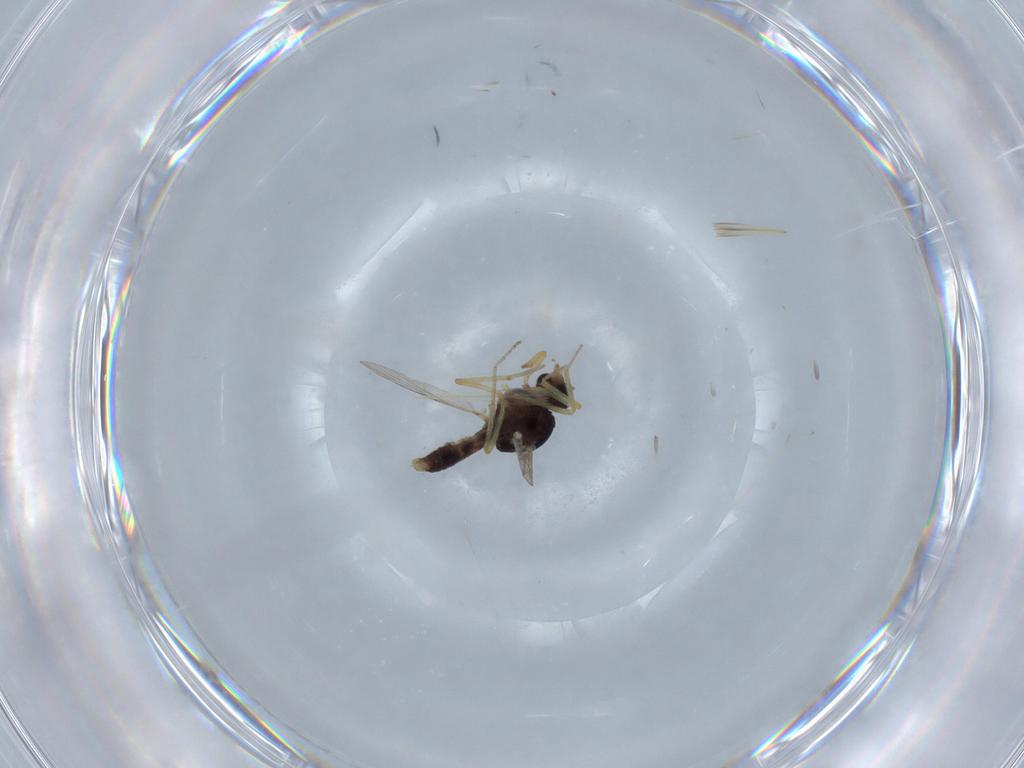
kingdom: Animalia
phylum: Arthropoda
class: Insecta
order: Diptera
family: Ceratopogonidae
